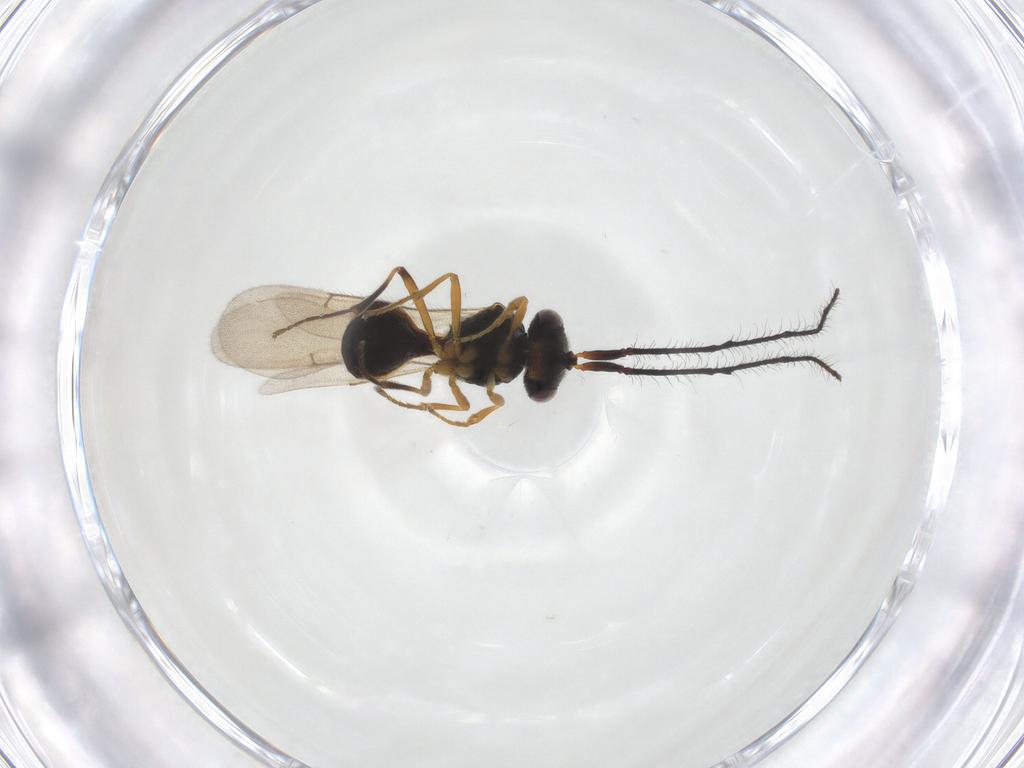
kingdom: Animalia
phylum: Arthropoda
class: Insecta
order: Hymenoptera
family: Scelionidae
